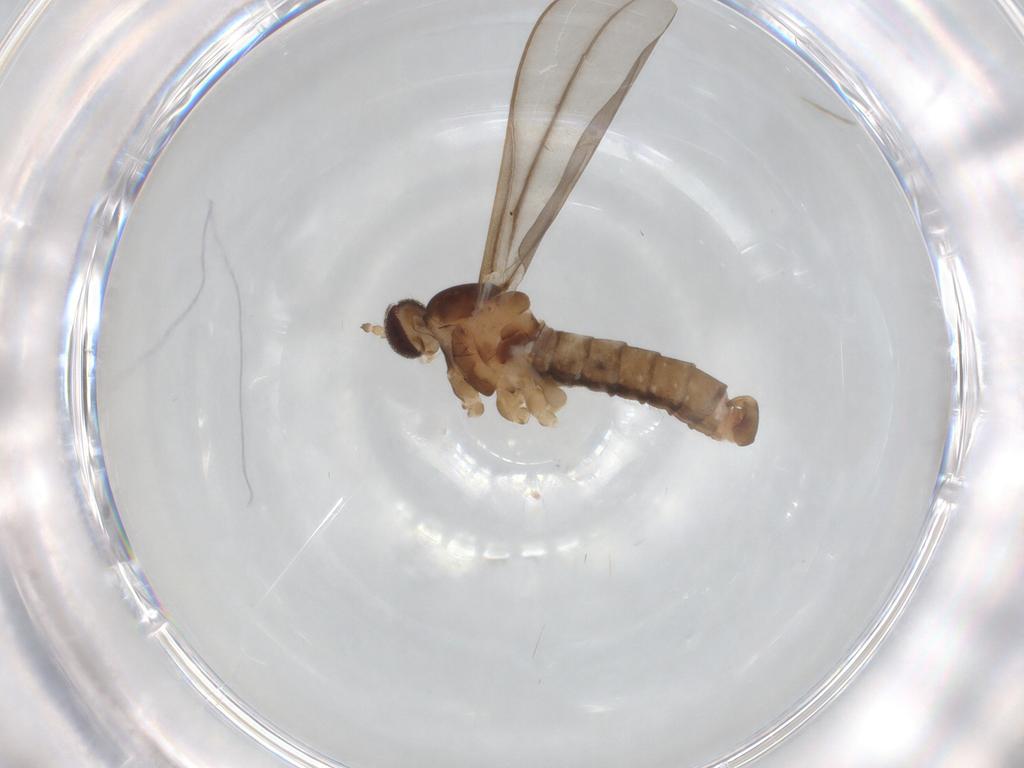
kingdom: Animalia
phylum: Arthropoda
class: Insecta
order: Diptera
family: Cecidomyiidae
